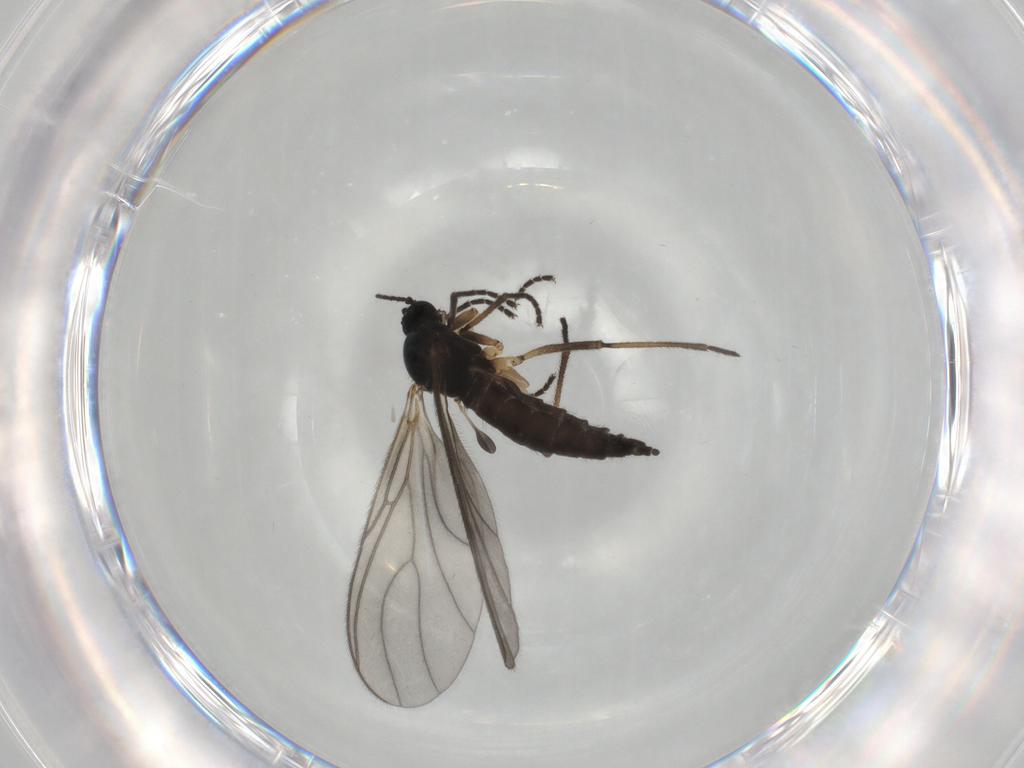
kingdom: Animalia
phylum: Arthropoda
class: Insecta
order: Diptera
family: Sciaridae
